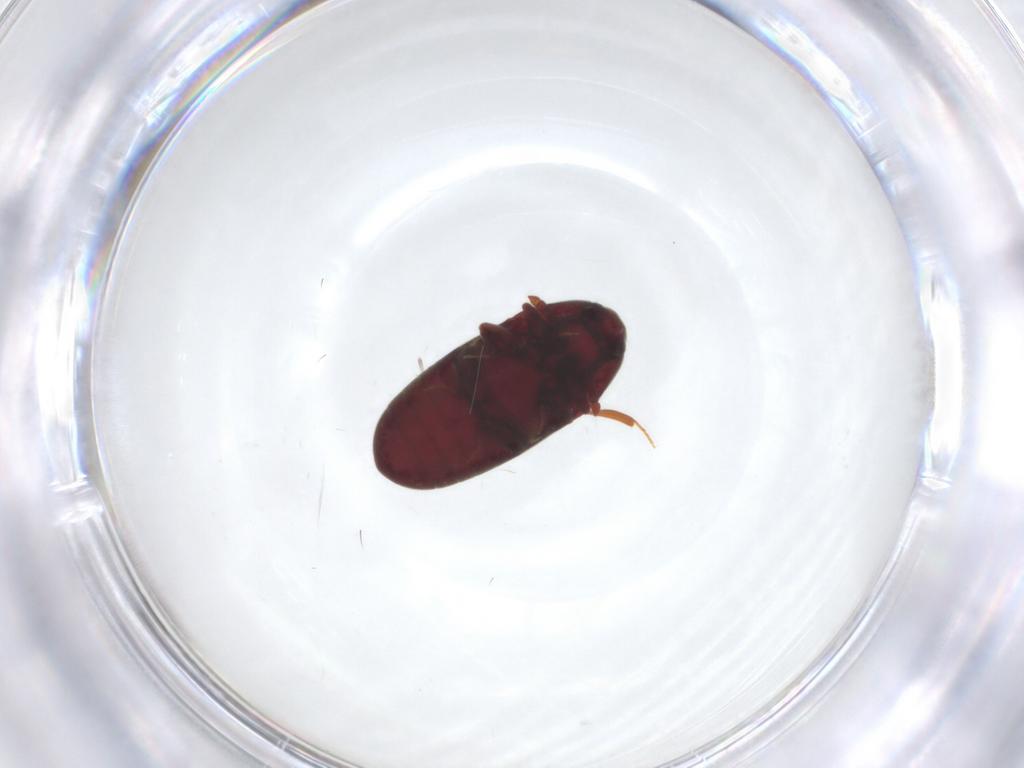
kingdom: Animalia
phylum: Arthropoda
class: Insecta
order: Coleoptera
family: Throscidae
